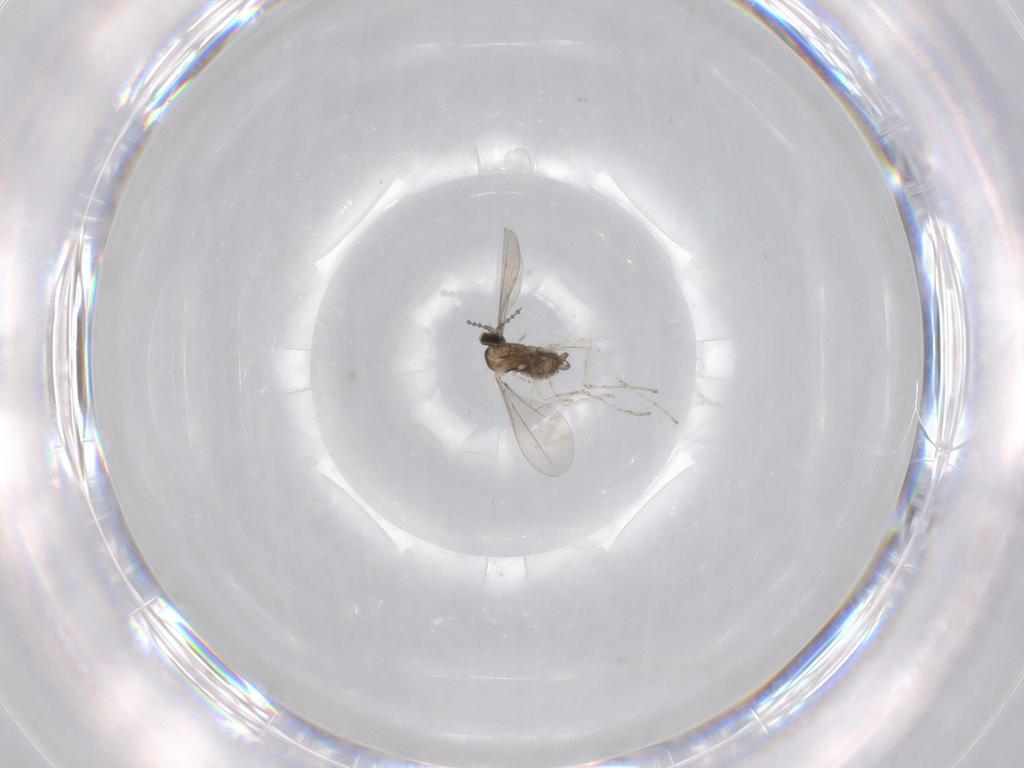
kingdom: Animalia
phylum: Arthropoda
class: Insecta
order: Diptera
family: Cecidomyiidae
